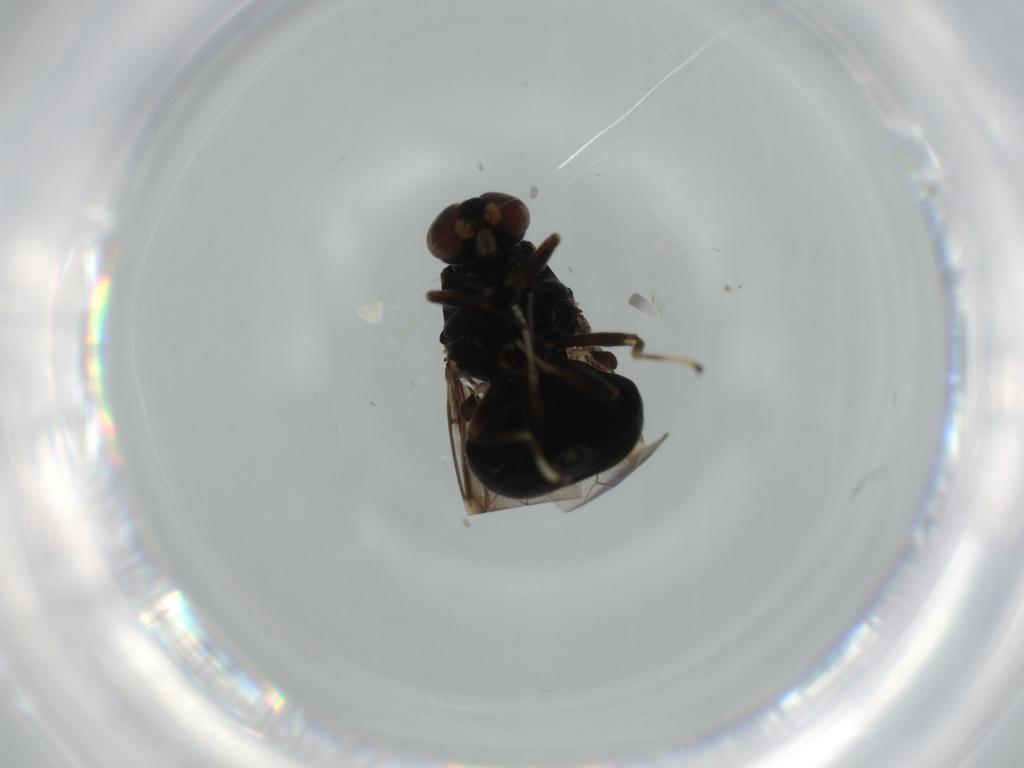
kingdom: Animalia
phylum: Arthropoda
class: Insecta
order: Diptera
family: Stratiomyidae
